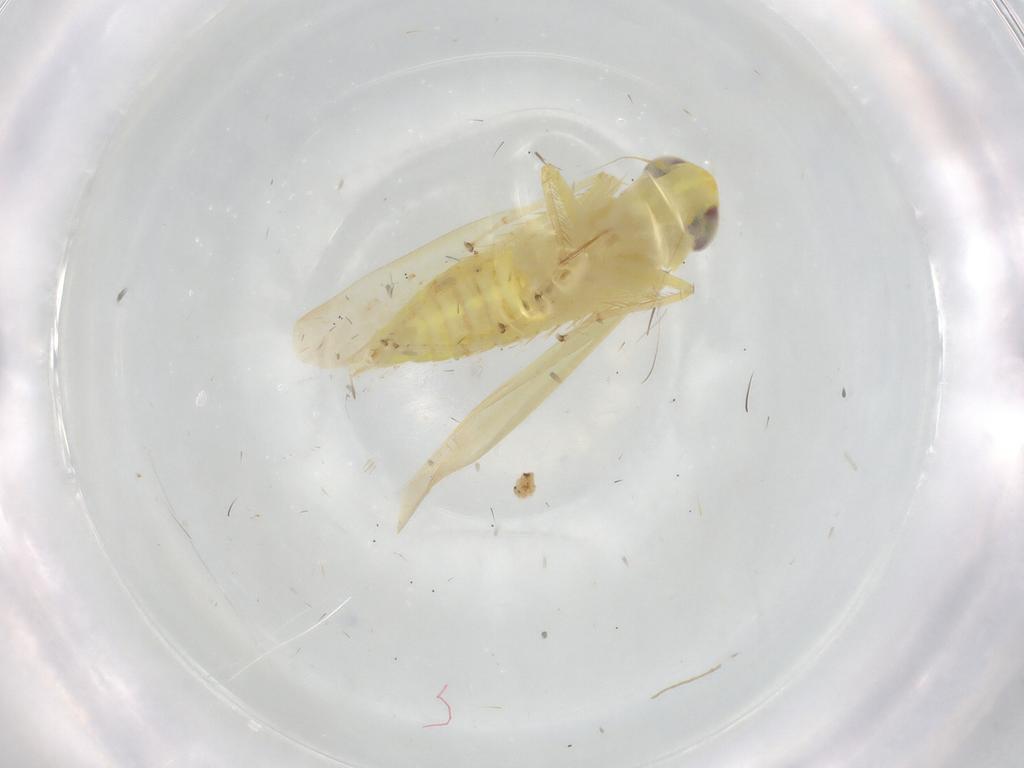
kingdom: Animalia
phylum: Arthropoda
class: Insecta
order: Hemiptera
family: Cicadellidae
